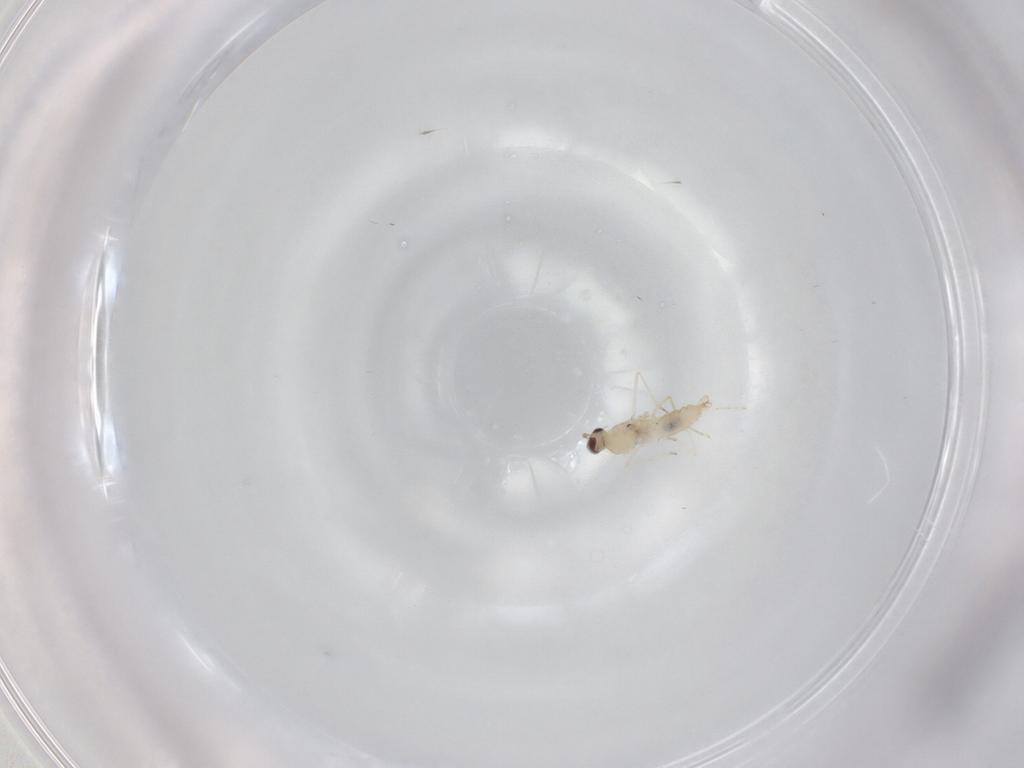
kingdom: Animalia
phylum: Arthropoda
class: Insecta
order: Diptera
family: Cecidomyiidae
